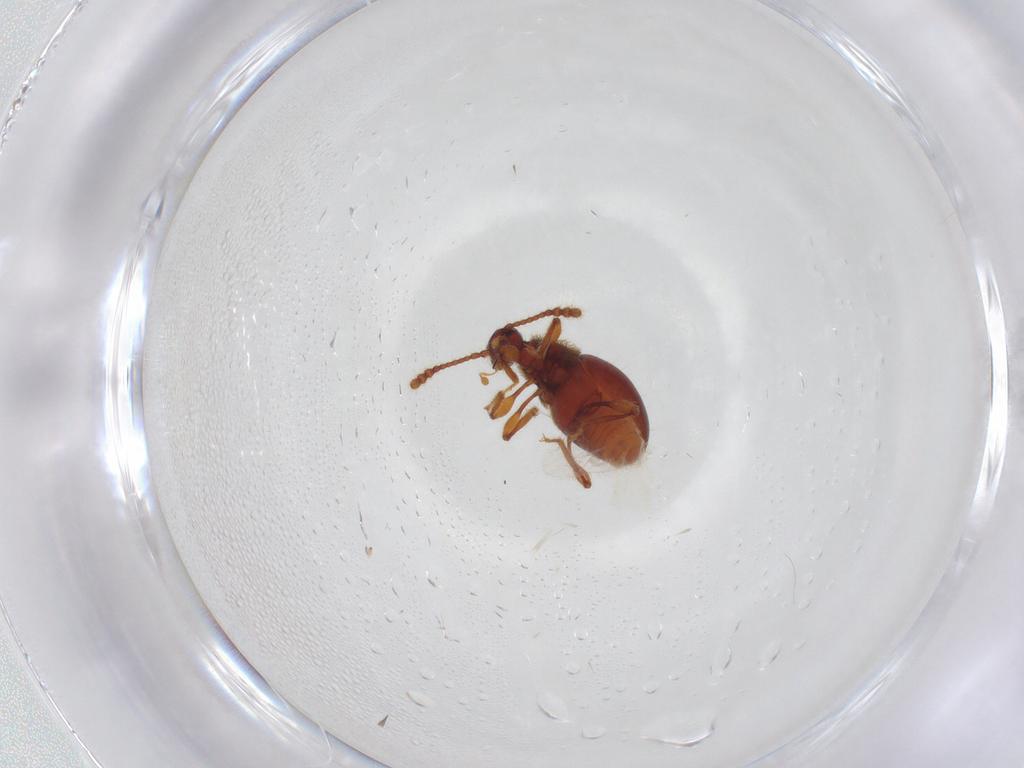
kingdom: Animalia
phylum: Arthropoda
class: Insecta
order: Coleoptera
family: Staphylinidae
